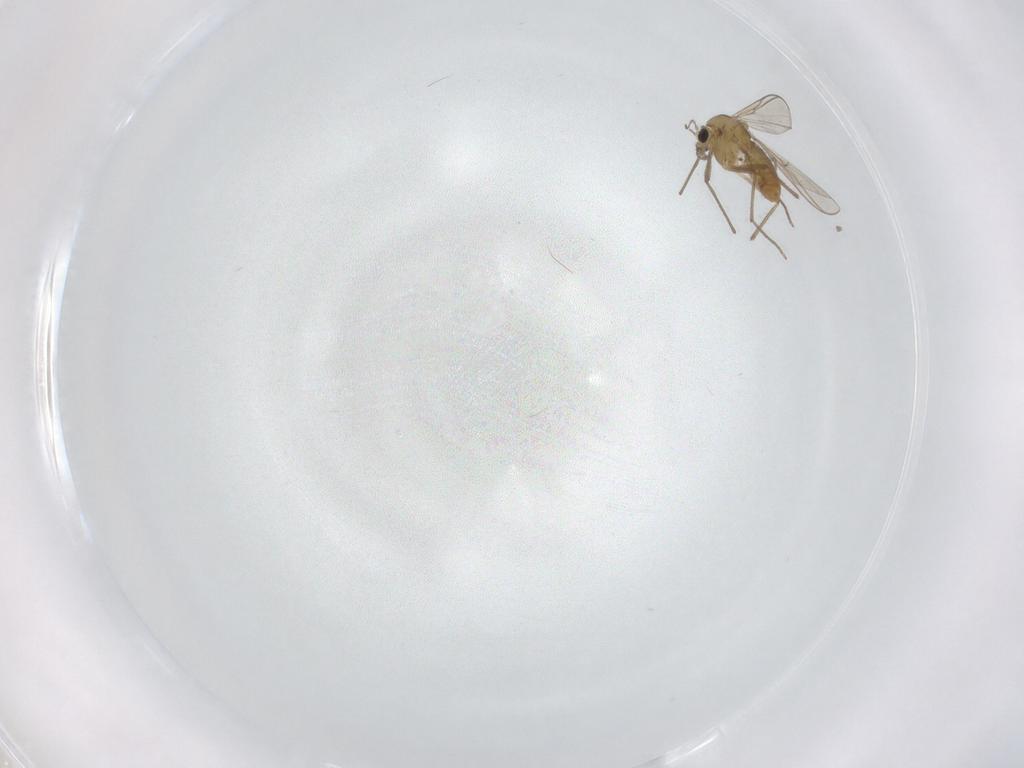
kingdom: Animalia
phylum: Arthropoda
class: Insecta
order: Diptera
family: Chironomidae
